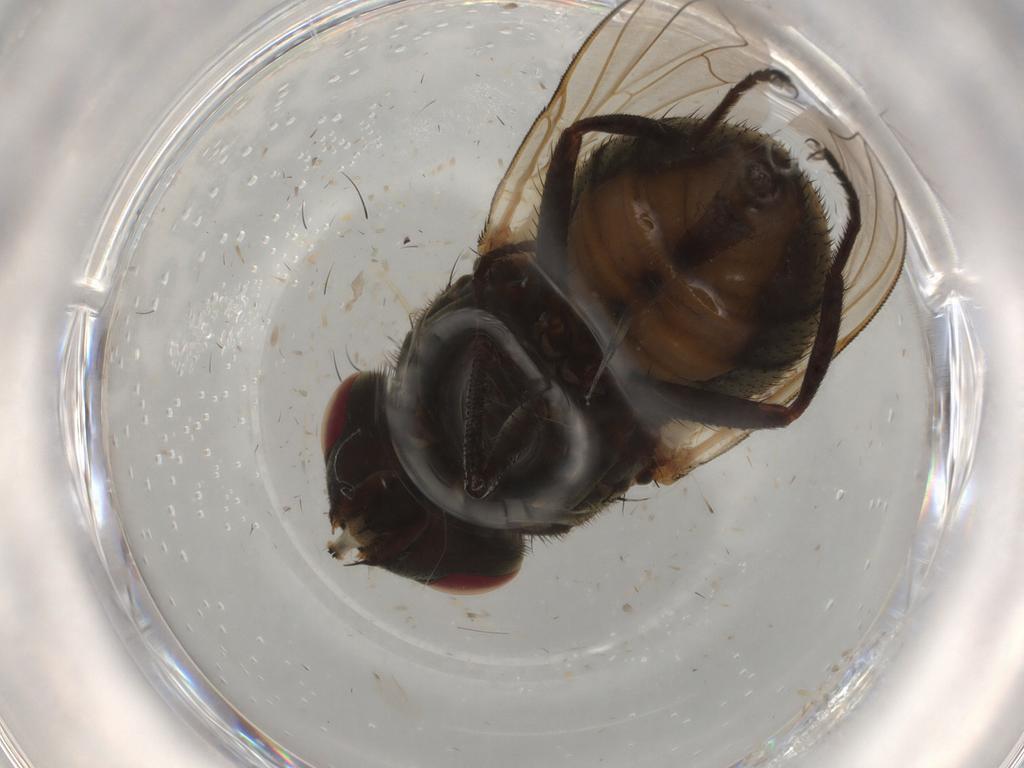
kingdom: Animalia
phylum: Arthropoda
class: Insecta
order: Diptera
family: Muscidae
